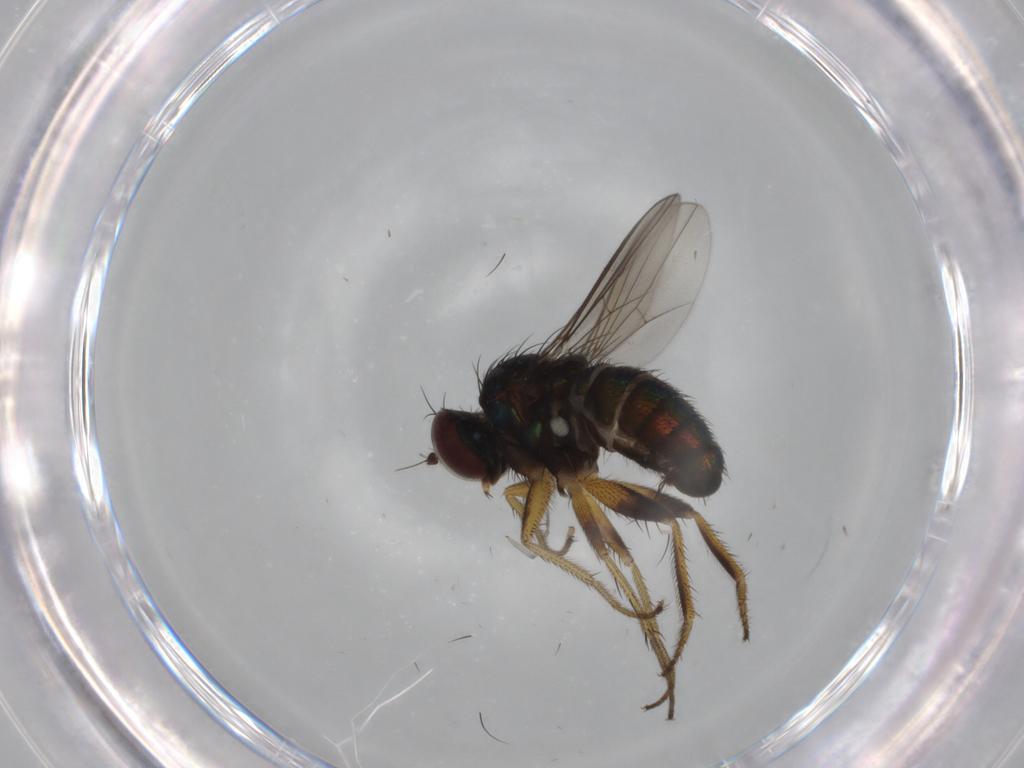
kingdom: Animalia
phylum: Arthropoda
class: Insecta
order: Diptera
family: Dolichopodidae
